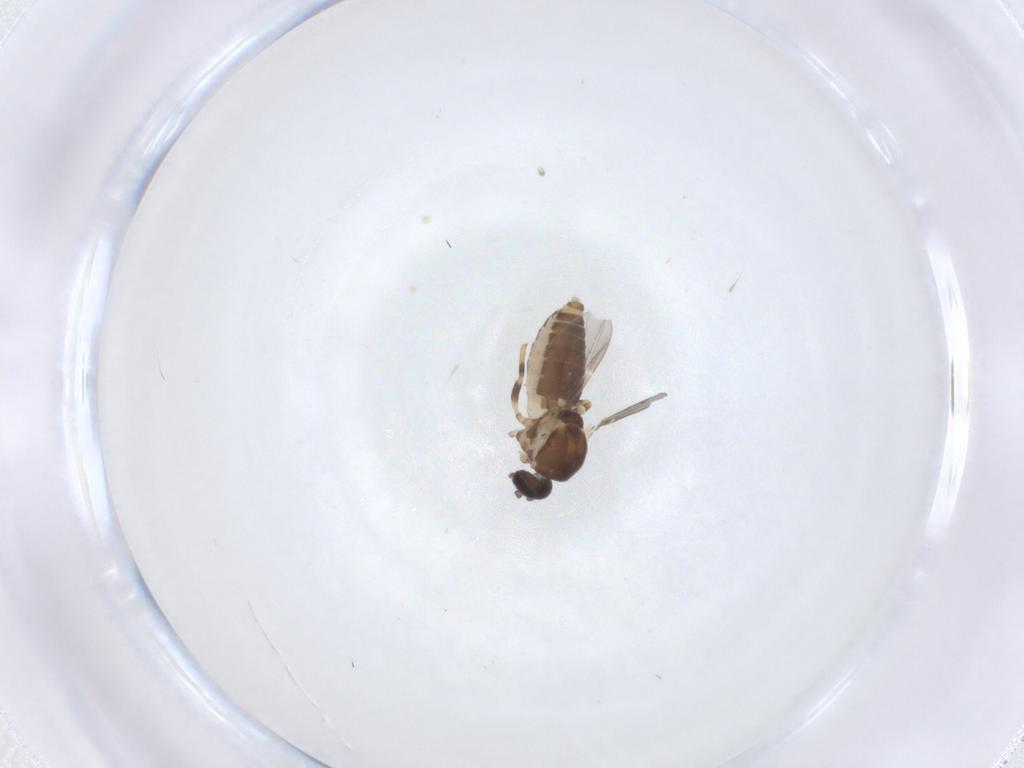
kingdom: Animalia
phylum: Arthropoda
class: Insecta
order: Diptera
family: Ceratopogonidae
